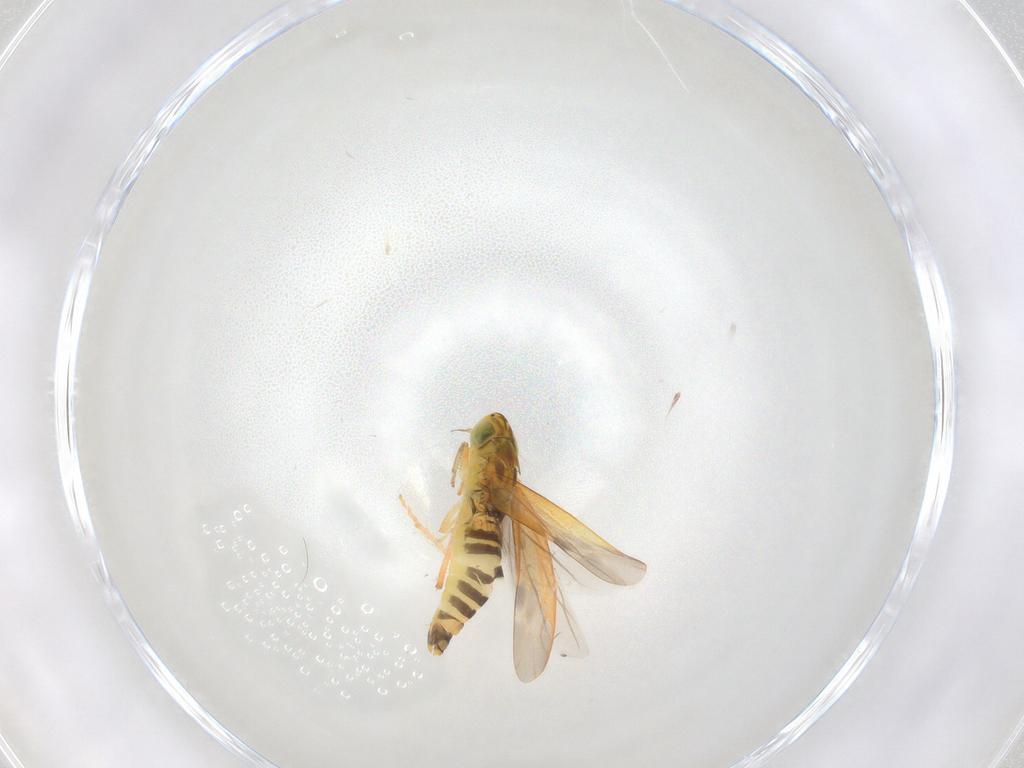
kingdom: Animalia
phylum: Arthropoda
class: Insecta
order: Hemiptera
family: Cicadellidae
